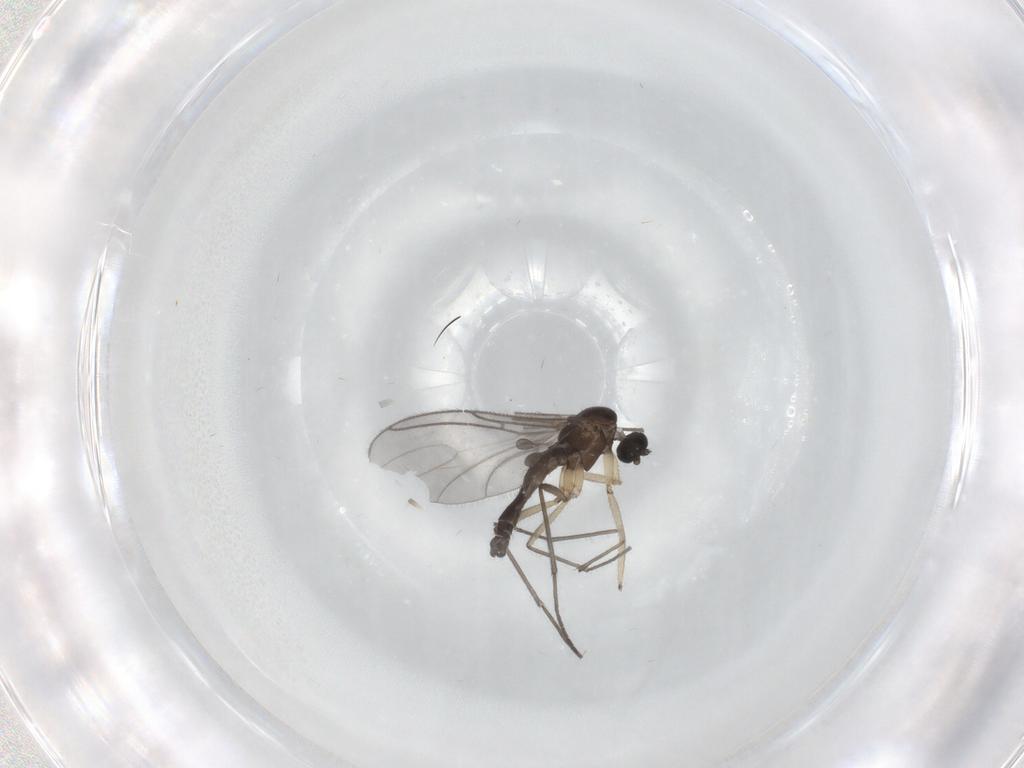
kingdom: Animalia
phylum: Arthropoda
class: Insecta
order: Diptera
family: Sciaridae
